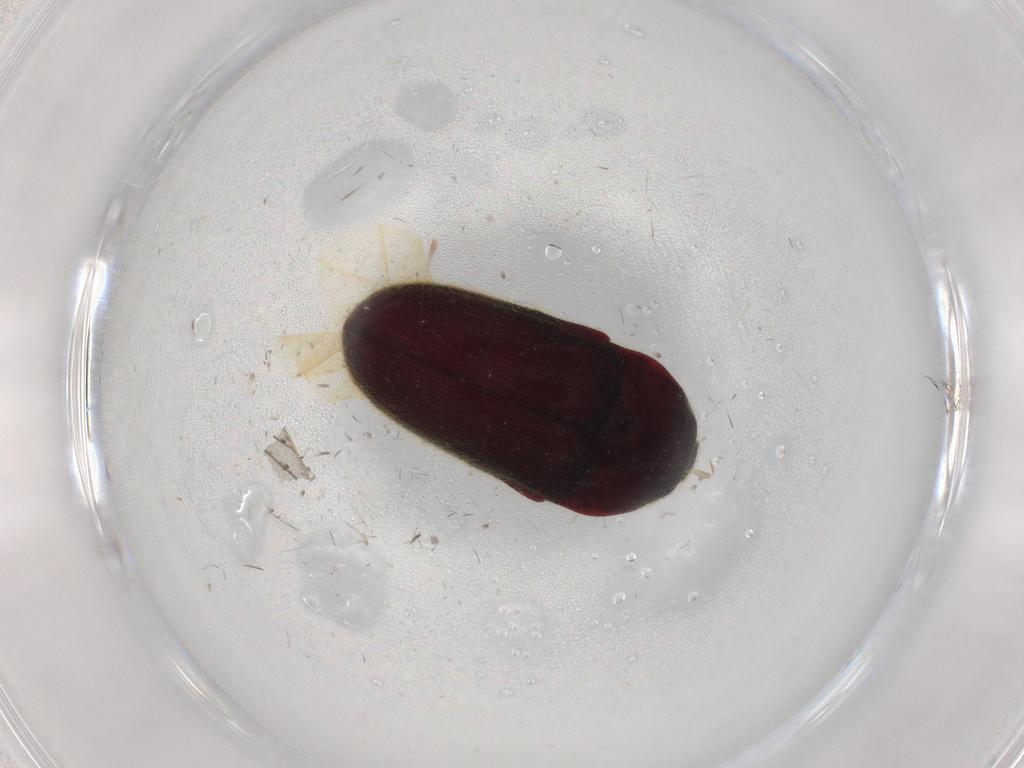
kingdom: Animalia
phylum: Arthropoda
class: Insecta
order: Coleoptera
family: Throscidae
